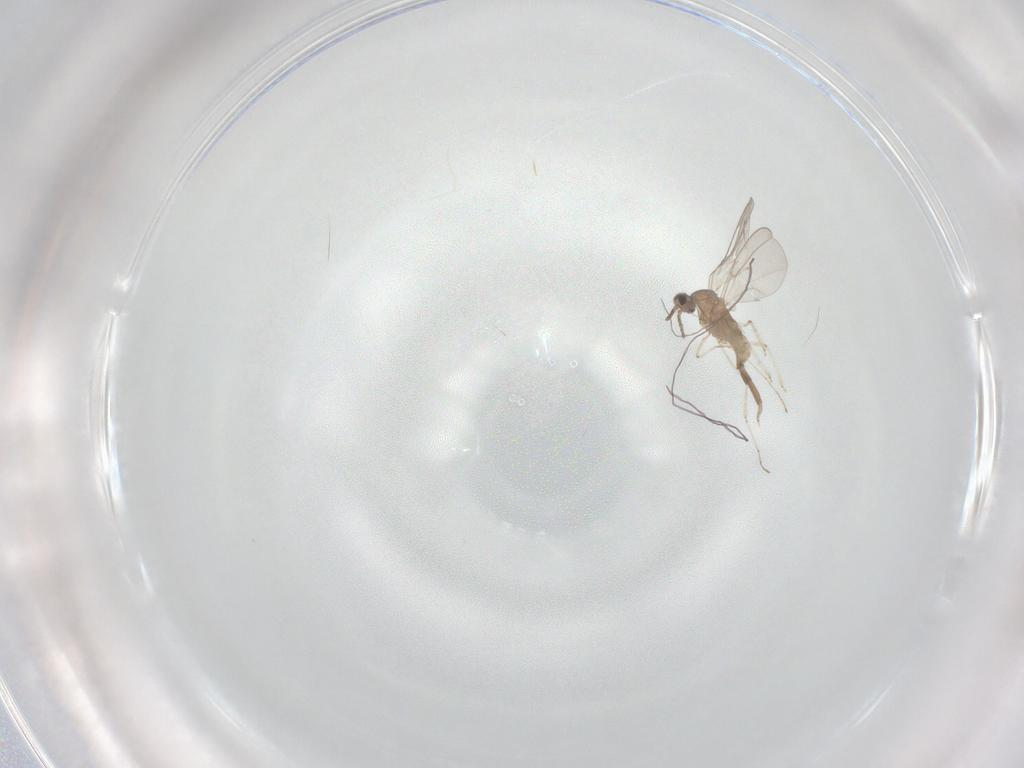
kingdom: Animalia
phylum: Arthropoda
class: Insecta
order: Diptera
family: Cecidomyiidae
